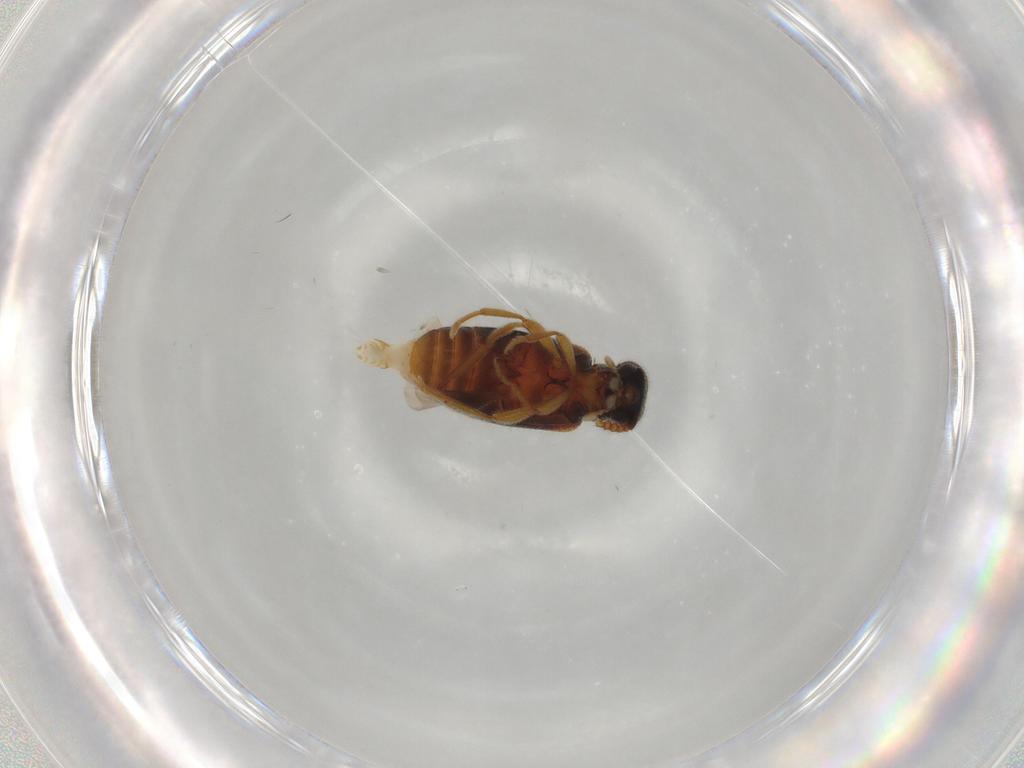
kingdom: Animalia
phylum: Arthropoda
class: Insecta
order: Coleoptera
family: Aderidae
